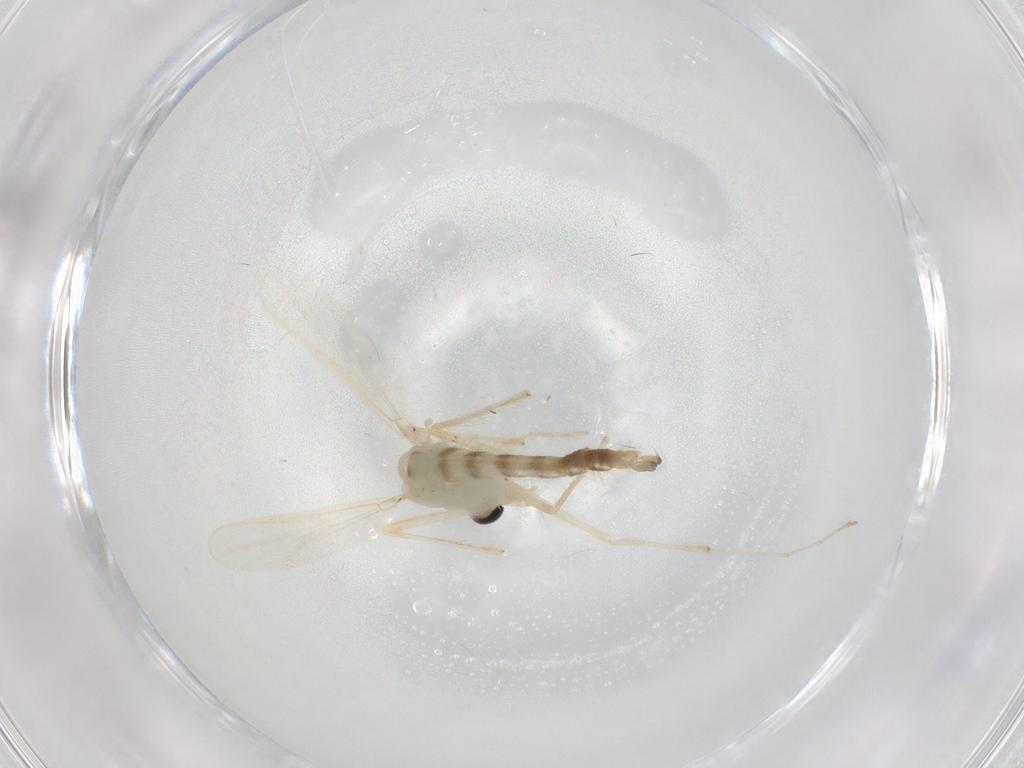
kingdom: Animalia
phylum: Arthropoda
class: Insecta
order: Diptera
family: Chironomidae
